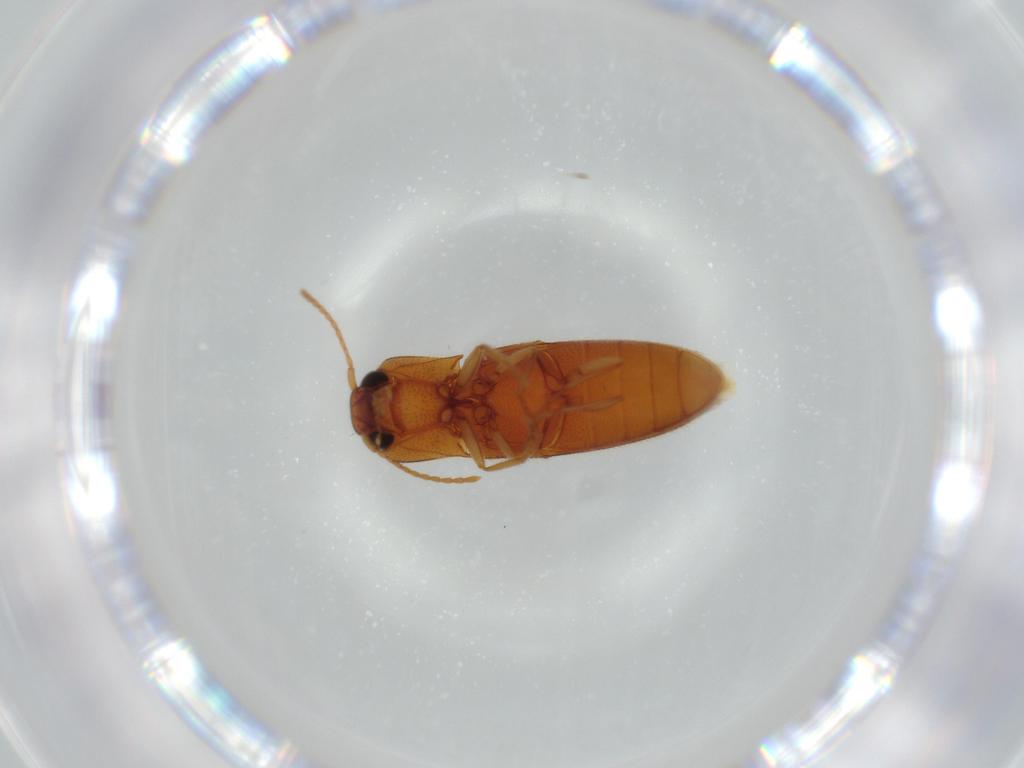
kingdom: Animalia
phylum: Arthropoda
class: Insecta
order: Coleoptera
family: Elateridae
